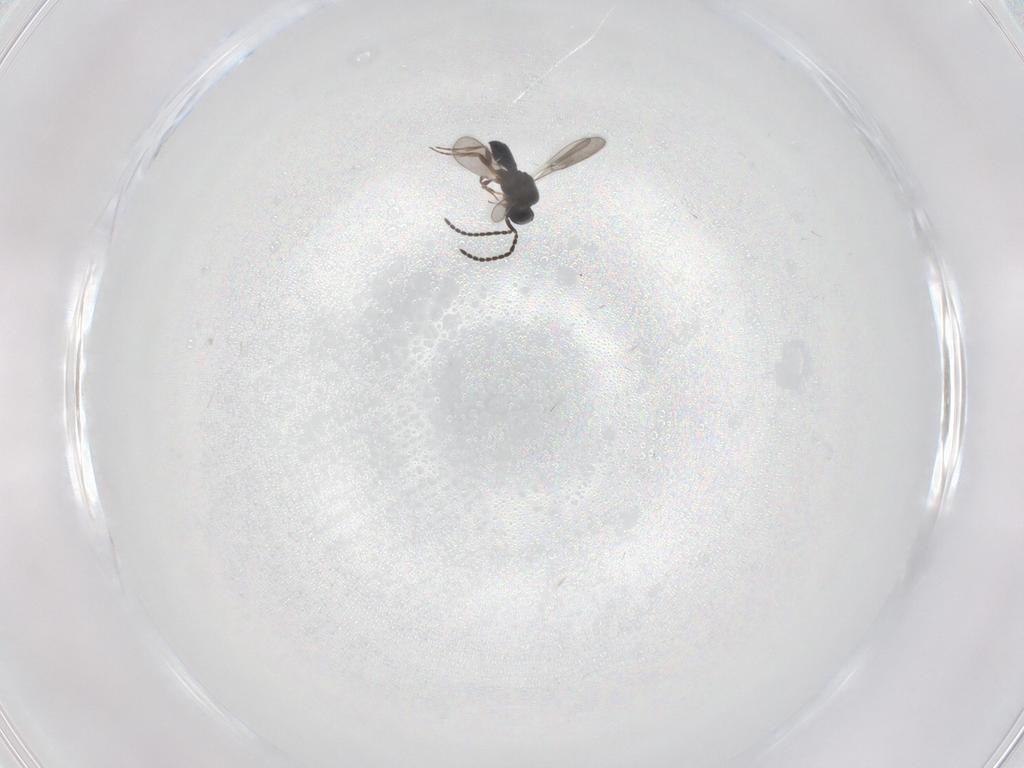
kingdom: Animalia
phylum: Arthropoda
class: Insecta
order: Hymenoptera
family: Scelionidae
